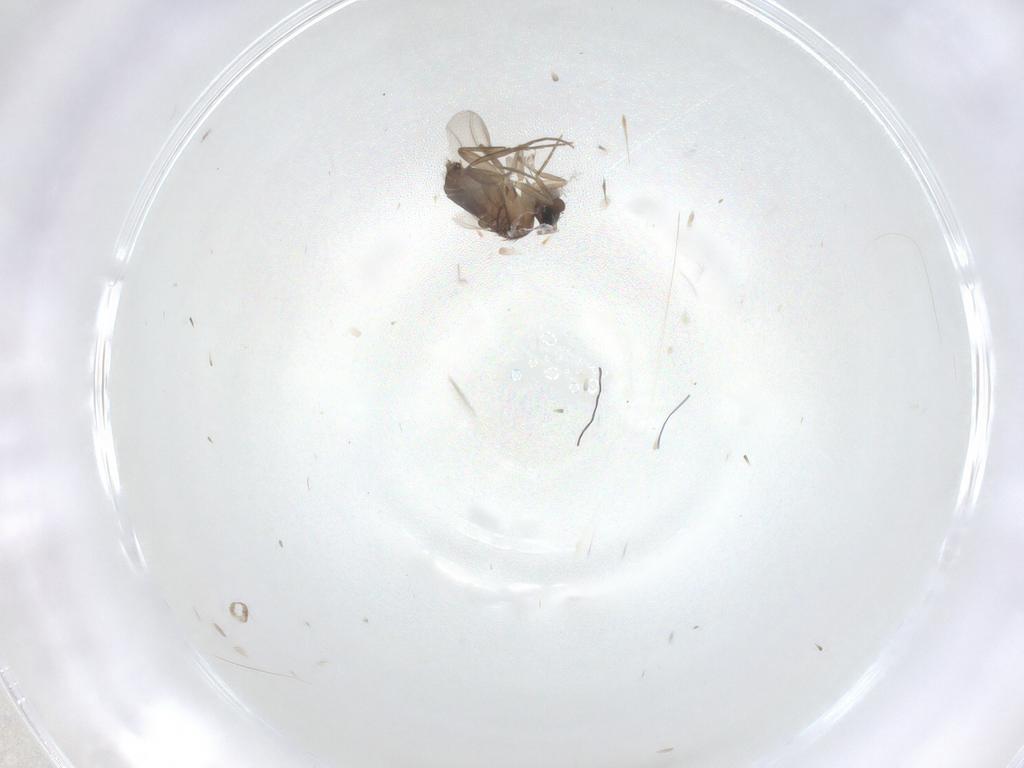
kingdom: Animalia
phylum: Arthropoda
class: Insecta
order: Diptera
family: Phoridae
